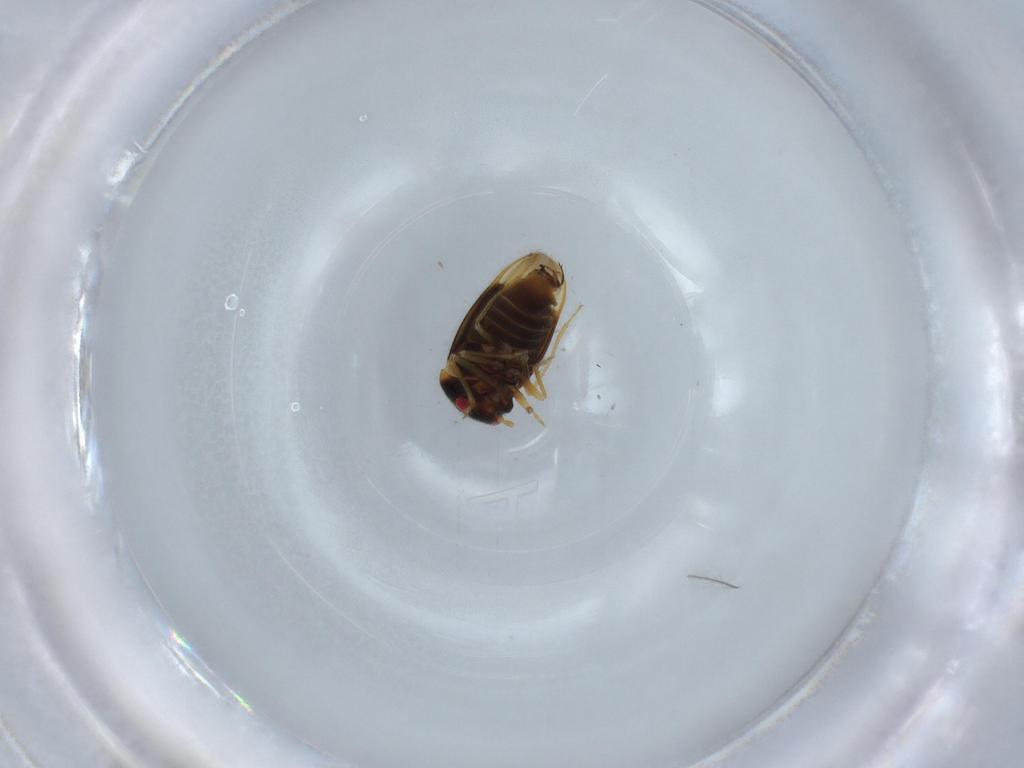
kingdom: Animalia
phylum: Arthropoda
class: Insecta
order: Hemiptera
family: Schizopteridae
